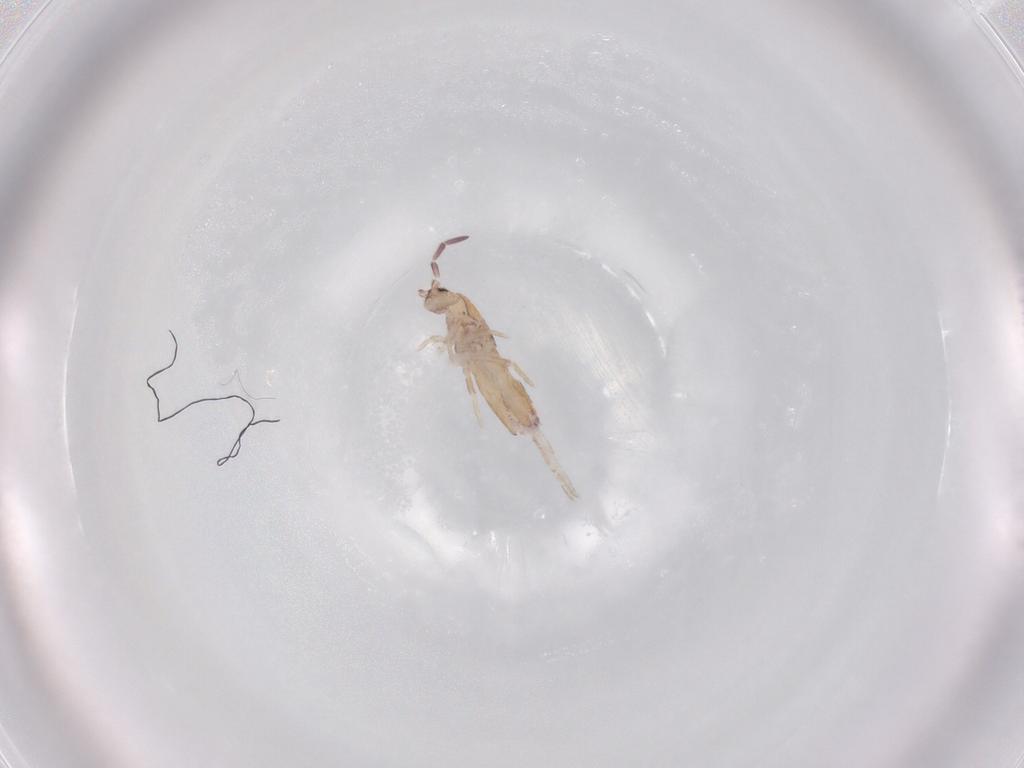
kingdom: Animalia
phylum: Arthropoda
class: Collembola
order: Entomobryomorpha
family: Entomobryidae
